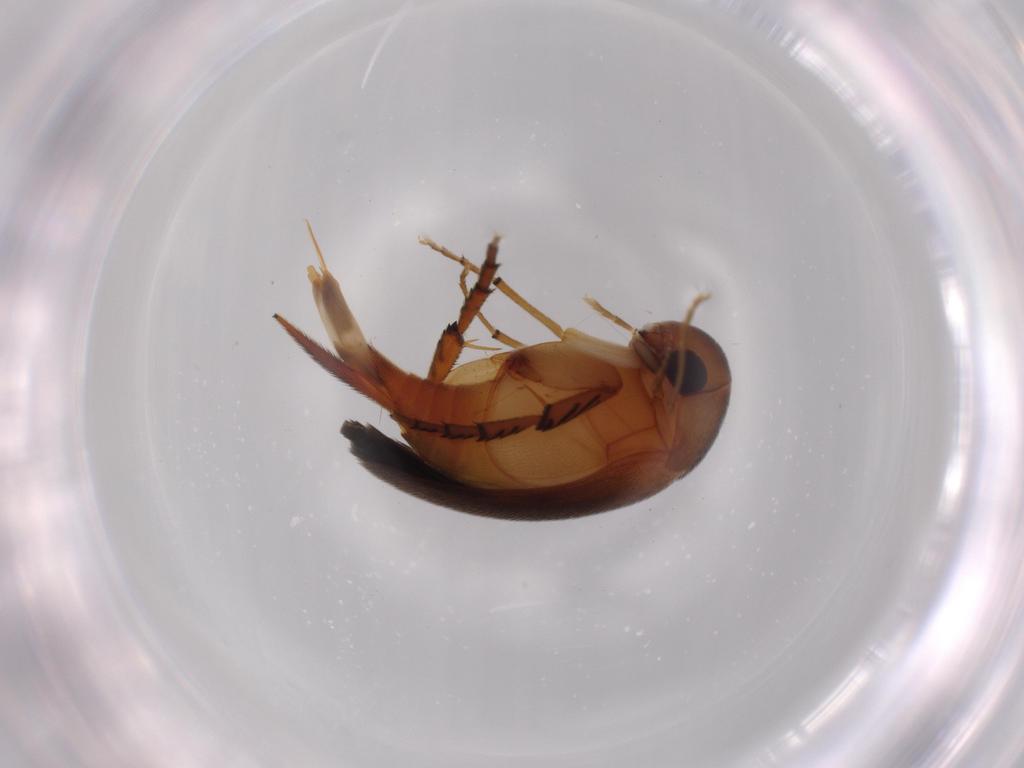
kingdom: Animalia
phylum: Arthropoda
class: Insecta
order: Coleoptera
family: Mordellidae
